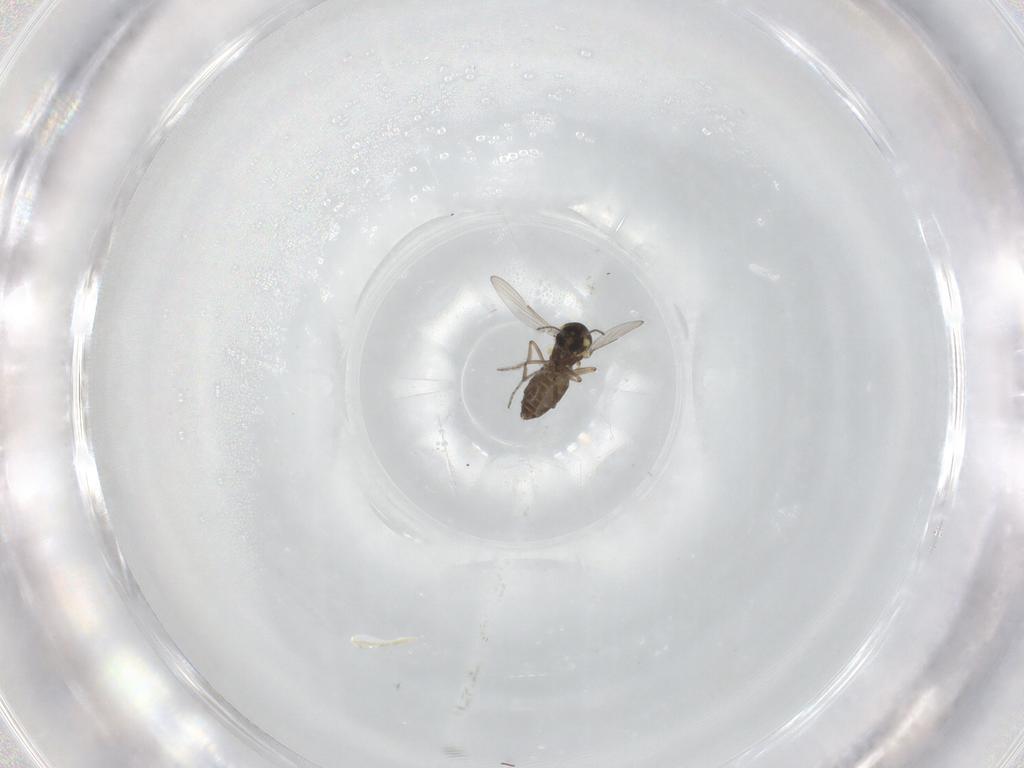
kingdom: Animalia
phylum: Arthropoda
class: Insecta
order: Diptera
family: Ceratopogonidae
